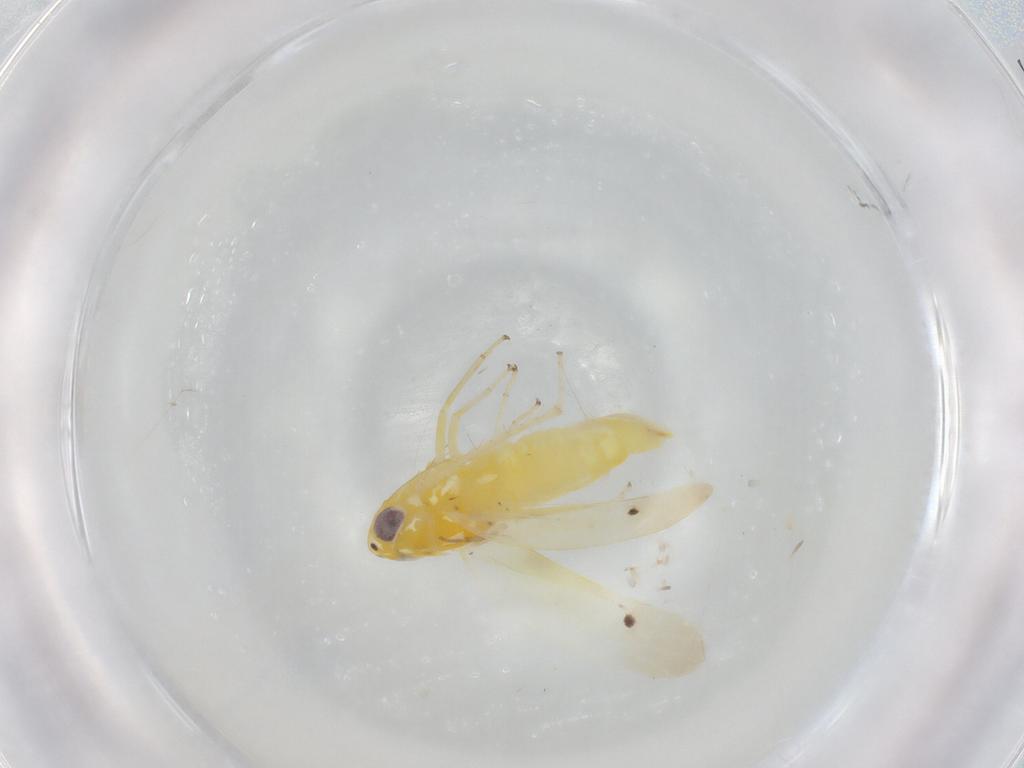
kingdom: Animalia
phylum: Arthropoda
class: Insecta
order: Hemiptera
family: Cicadellidae
